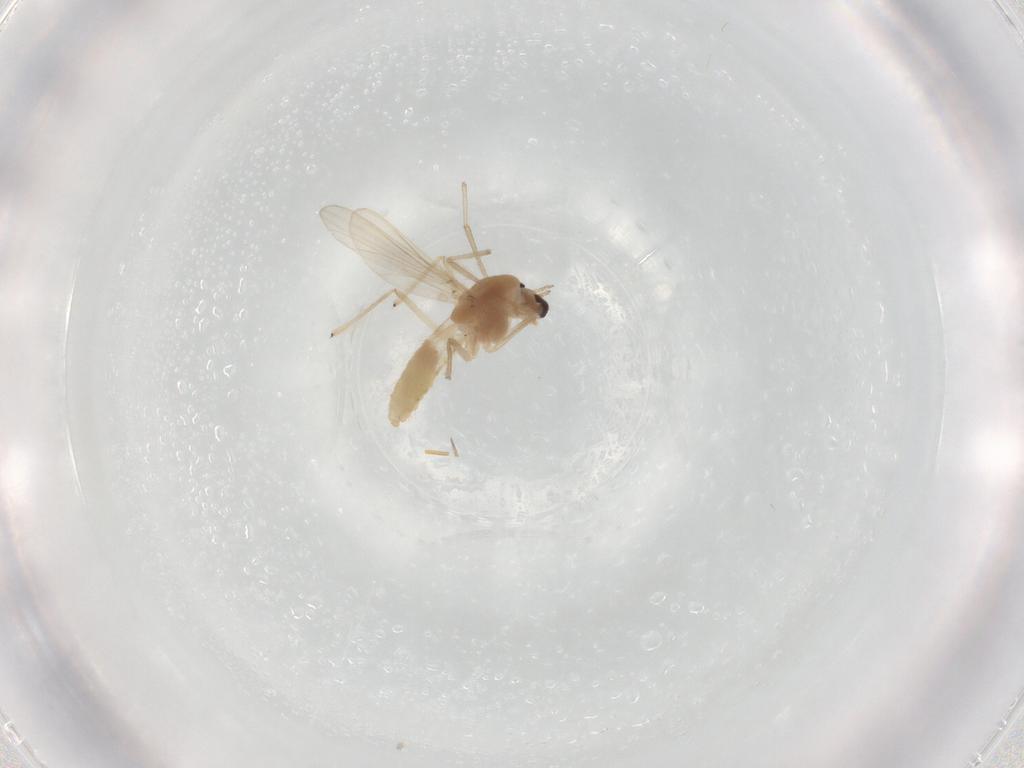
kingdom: Animalia
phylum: Arthropoda
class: Insecta
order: Diptera
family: Chironomidae
